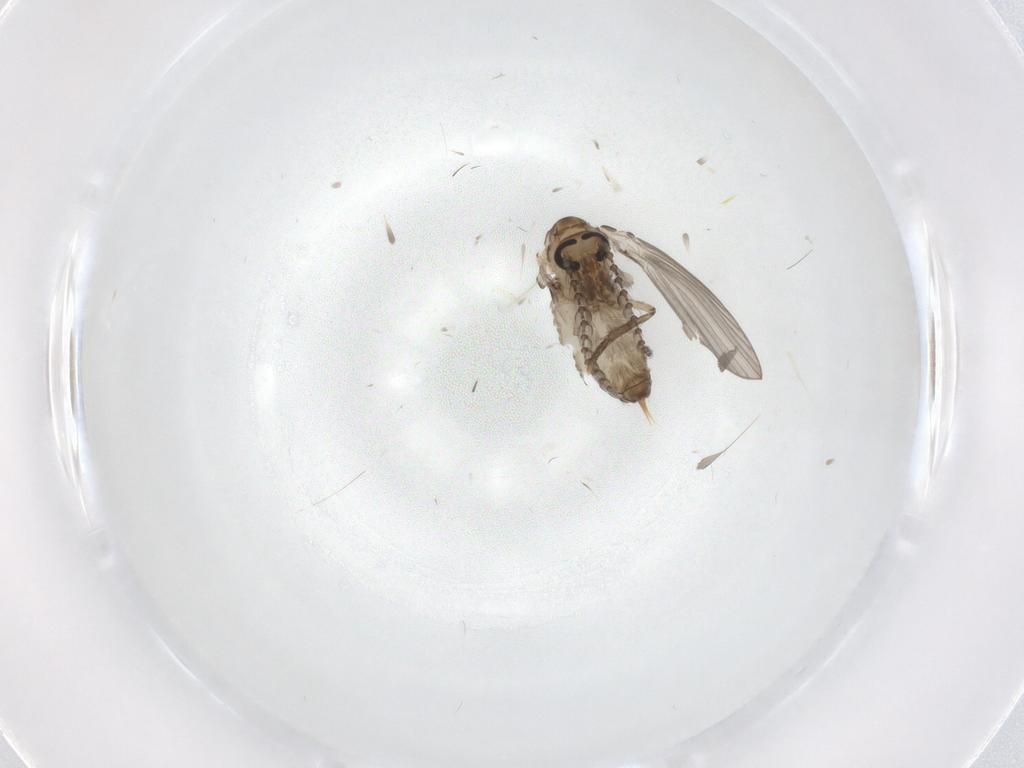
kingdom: Animalia
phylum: Arthropoda
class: Insecta
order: Diptera
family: Psychodidae
